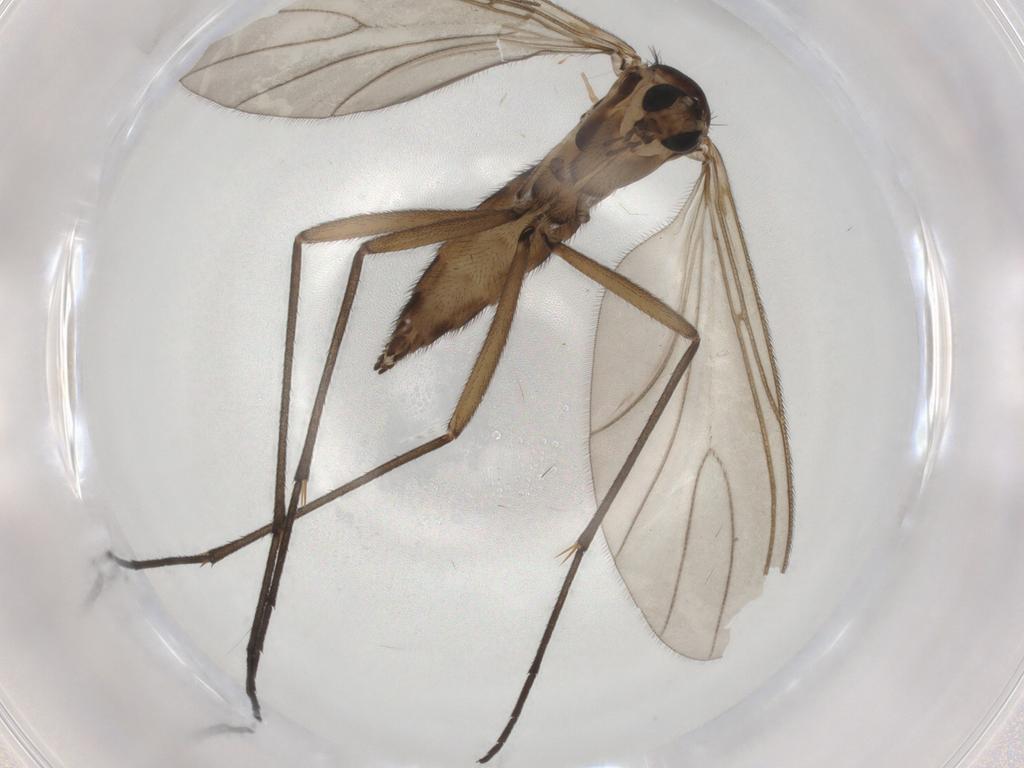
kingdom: Animalia
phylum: Arthropoda
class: Insecta
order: Diptera
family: Sciaridae
